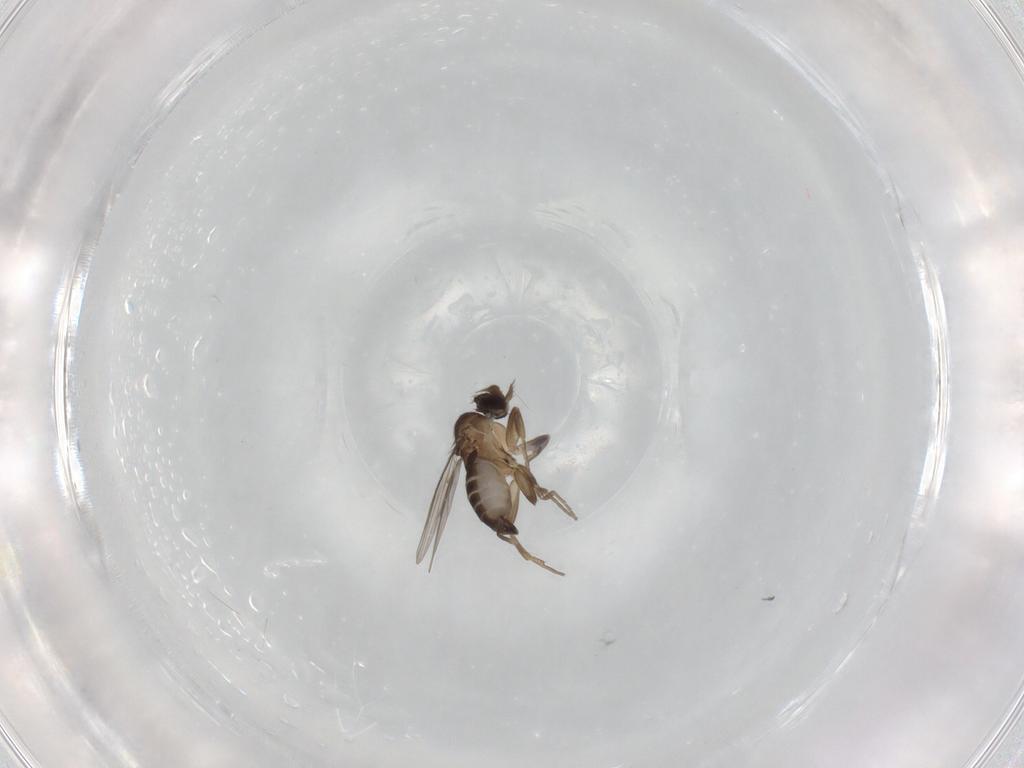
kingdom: Animalia
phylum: Arthropoda
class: Insecta
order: Diptera
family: Phoridae
